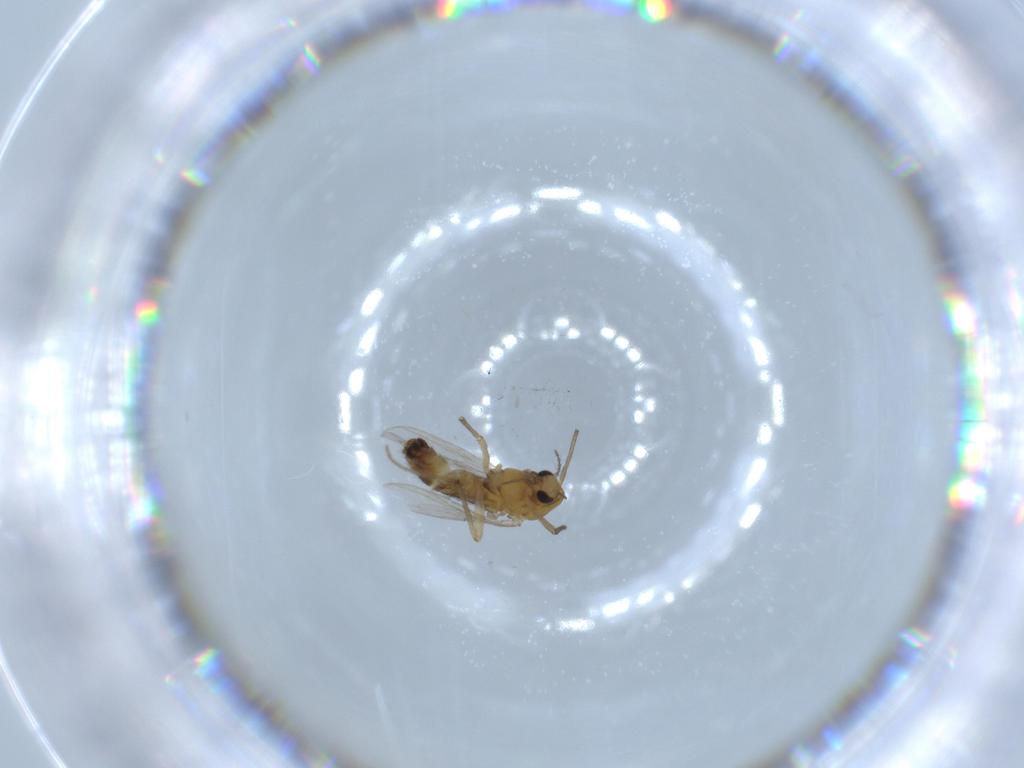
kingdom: Animalia
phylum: Arthropoda
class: Insecta
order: Diptera
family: Chironomidae
